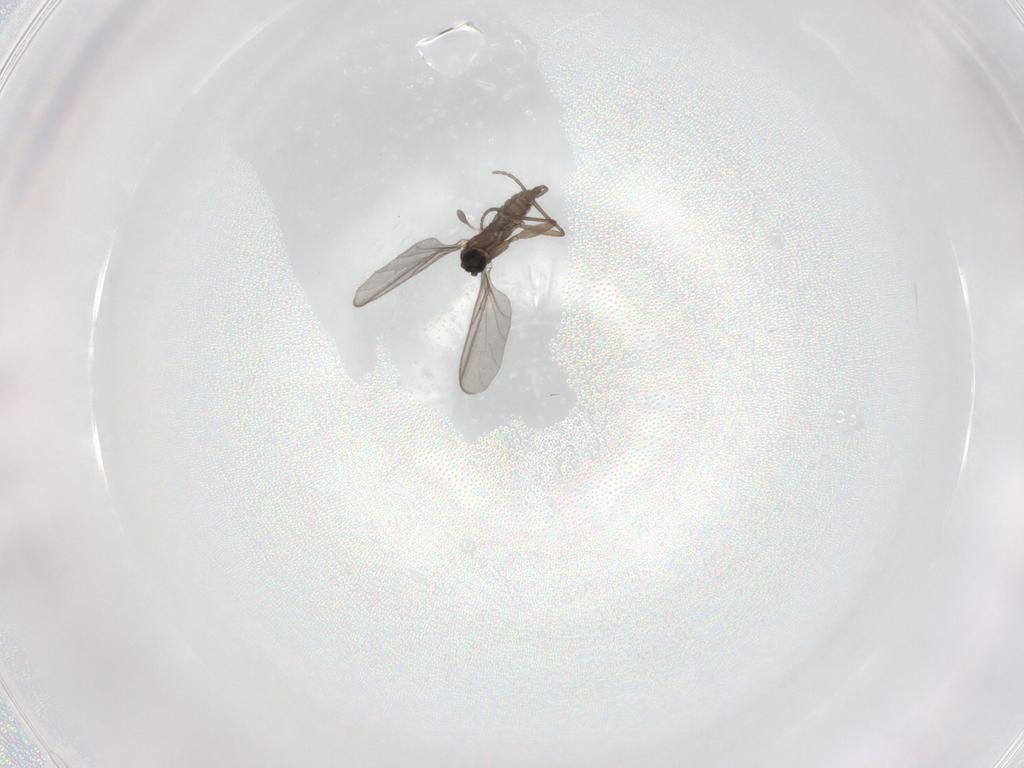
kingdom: Animalia
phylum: Arthropoda
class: Insecta
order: Diptera
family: Sciaridae
